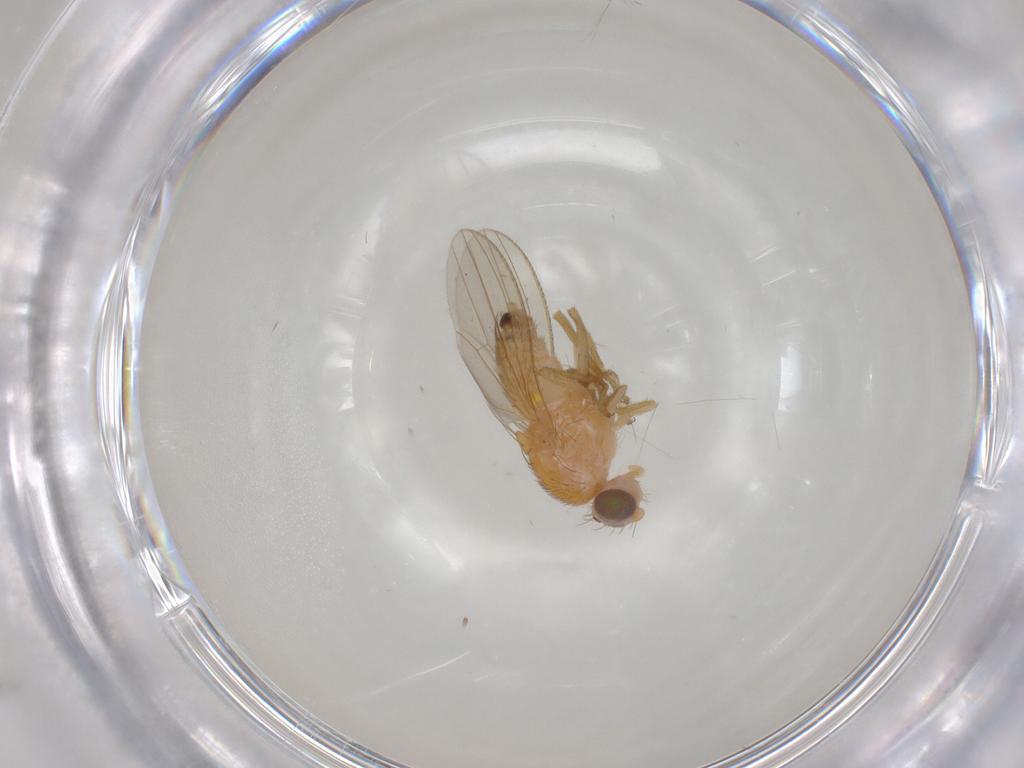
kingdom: Animalia
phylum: Arthropoda
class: Insecta
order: Diptera
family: Chyromyidae
